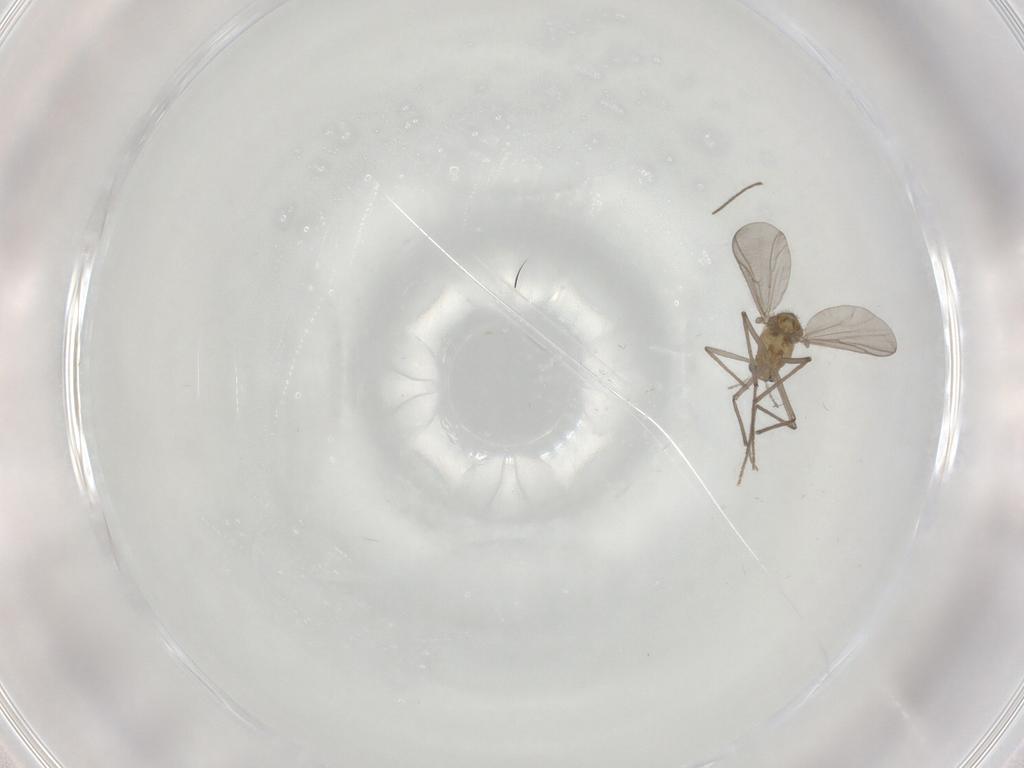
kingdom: Animalia
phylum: Arthropoda
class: Insecta
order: Diptera
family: Chironomidae
